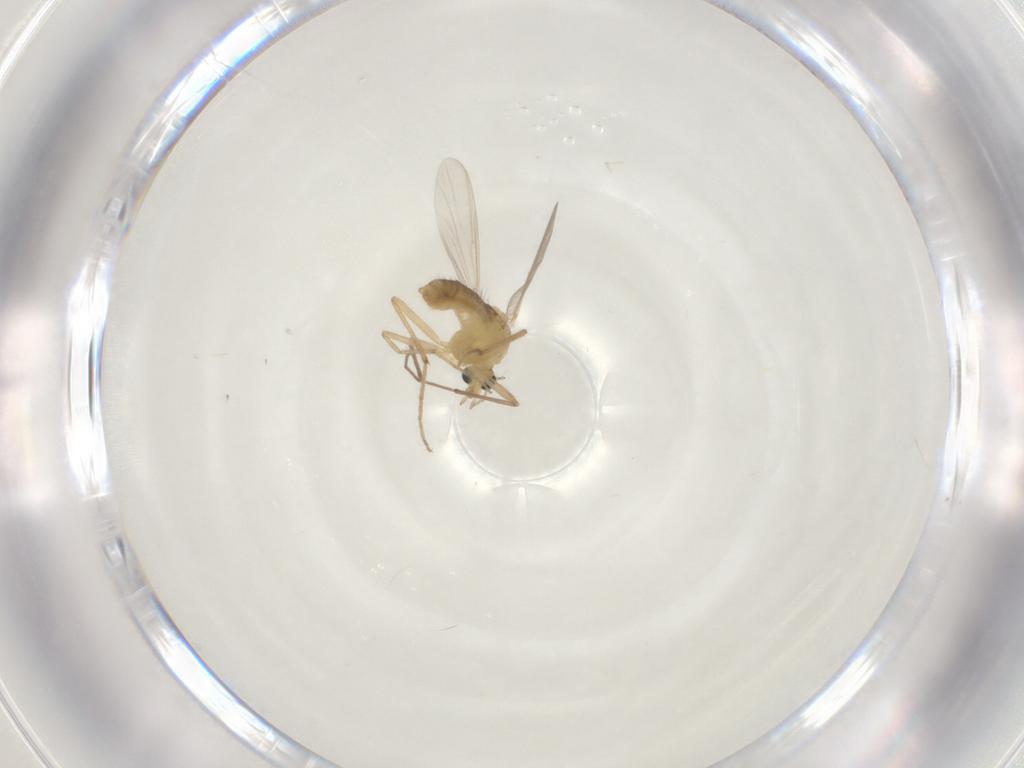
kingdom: Animalia
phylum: Arthropoda
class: Insecta
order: Diptera
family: Chironomidae
